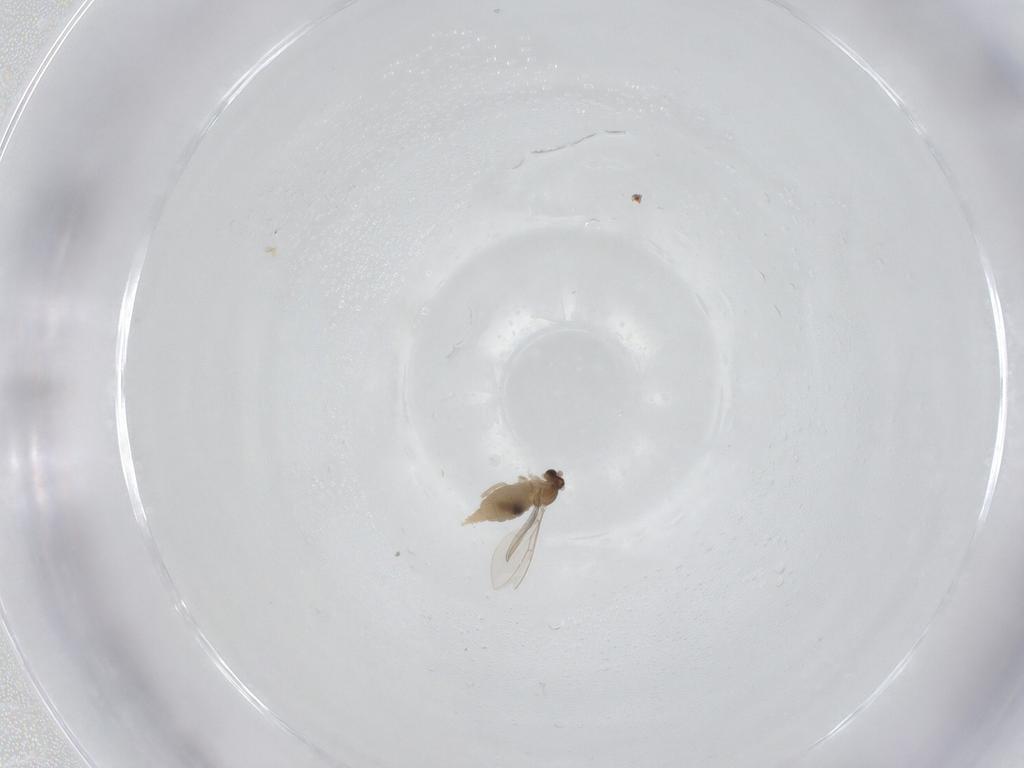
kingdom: Animalia
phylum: Arthropoda
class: Insecta
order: Diptera
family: Cecidomyiidae
